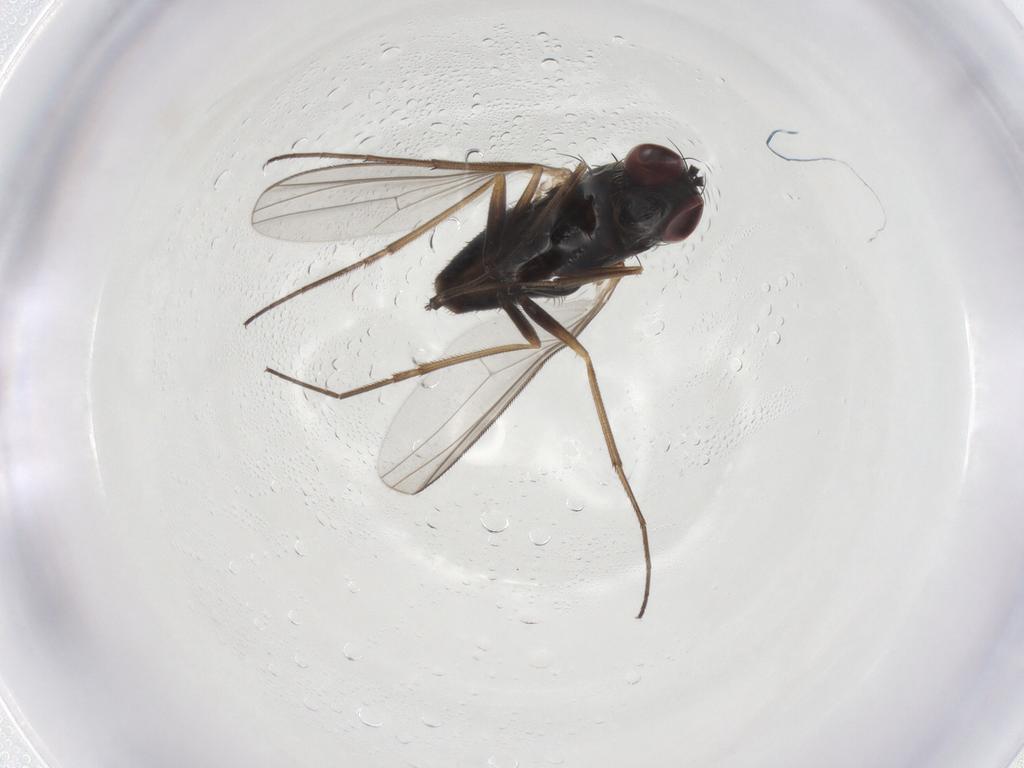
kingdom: Animalia
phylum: Arthropoda
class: Insecta
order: Diptera
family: Dolichopodidae
